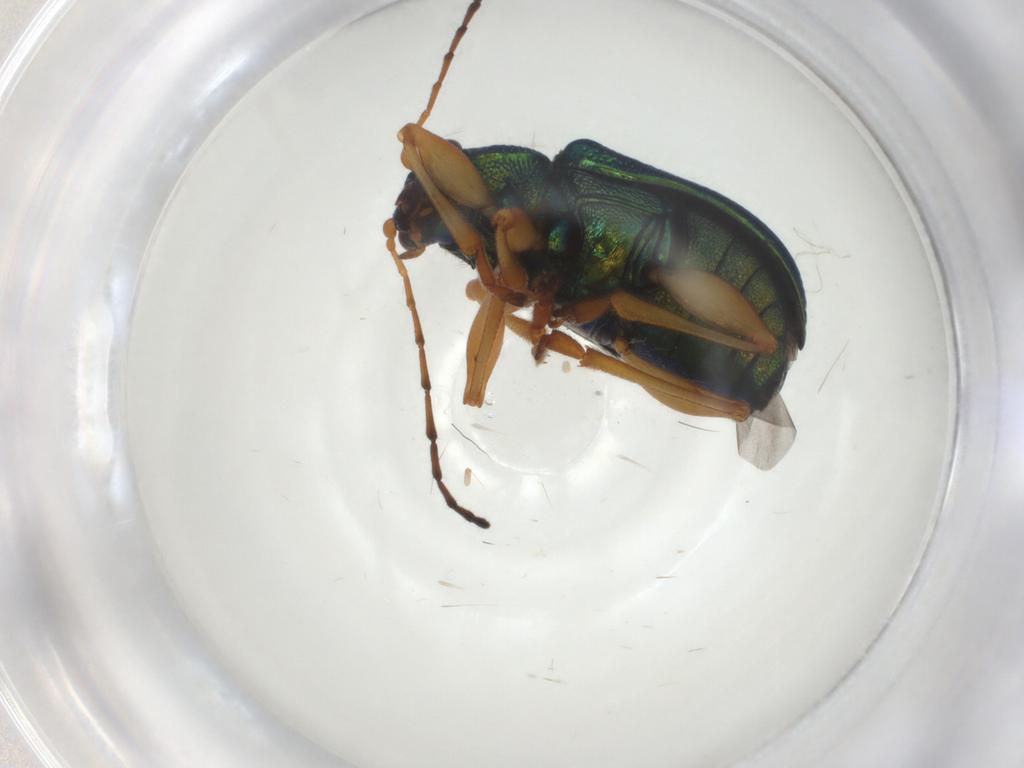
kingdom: Animalia
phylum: Arthropoda
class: Insecta
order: Coleoptera
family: Chrysomelidae
